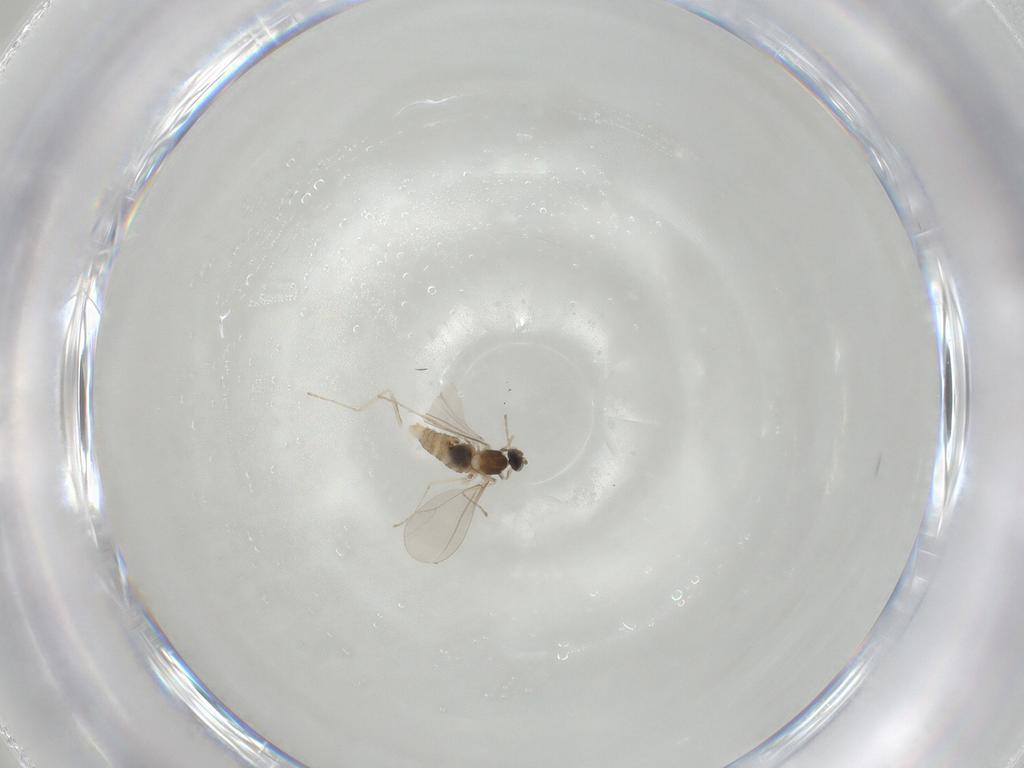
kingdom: Animalia
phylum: Arthropoda
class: Insecta
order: Diptera
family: Cecidomyiidae
